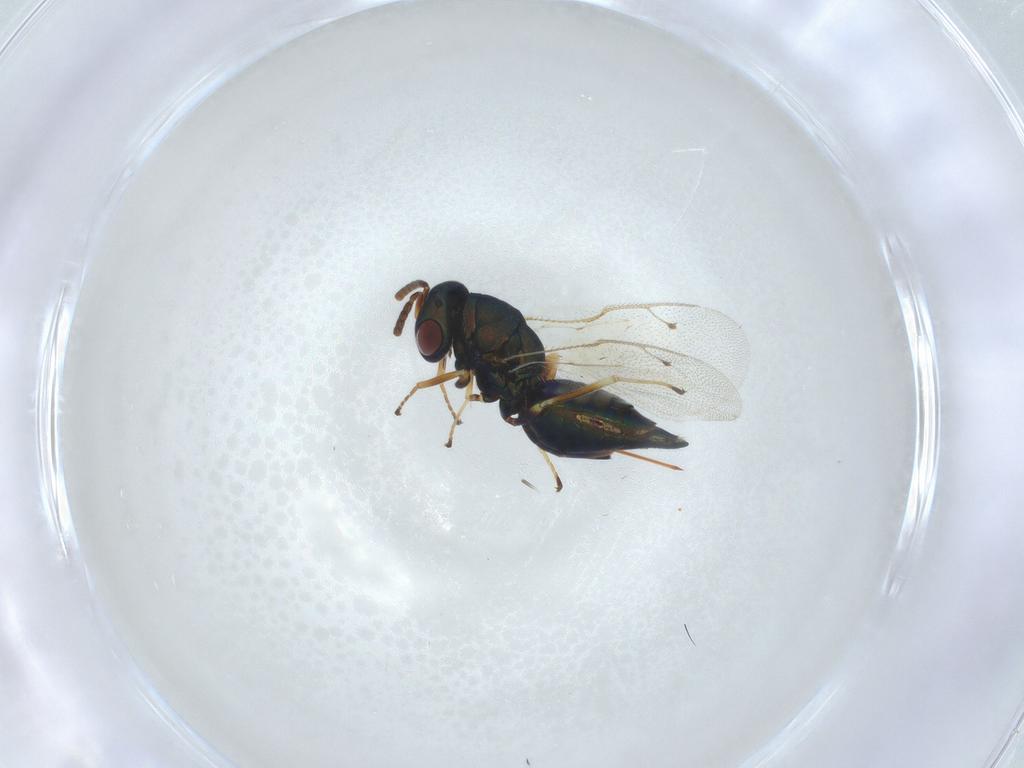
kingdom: Animalia
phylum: Arthropoda
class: Insecta
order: Hymenoptera
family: Pteromalidae
